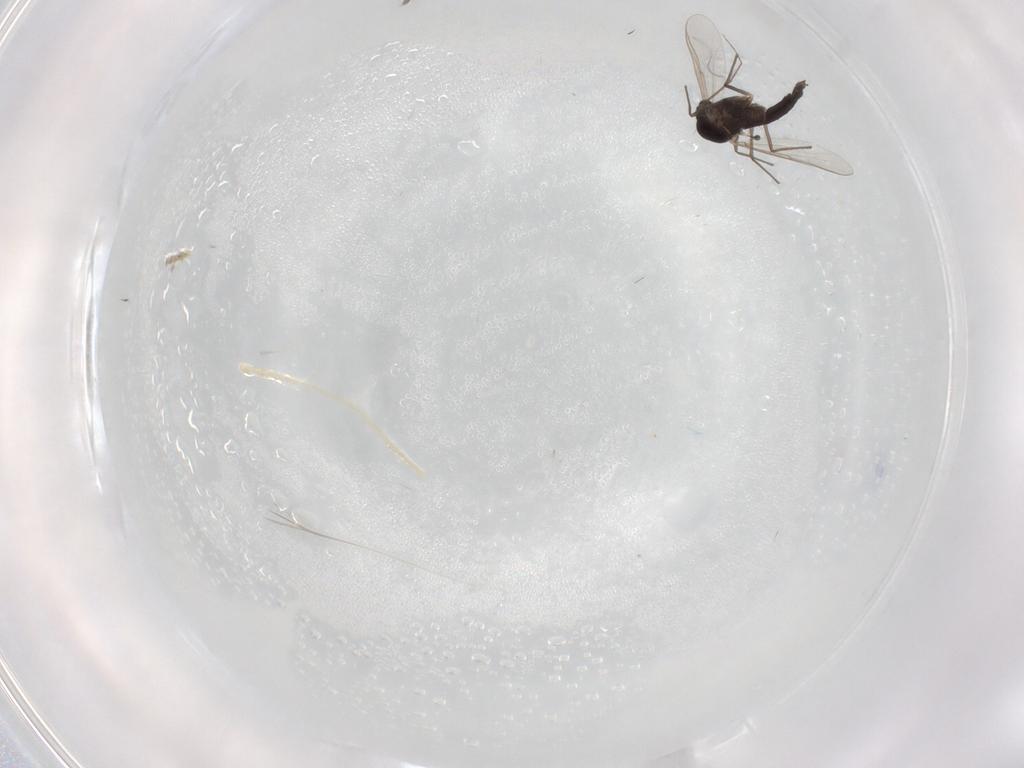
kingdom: Animalia
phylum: Arthropoda
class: Insecta
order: Diptera
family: Chironomidae
